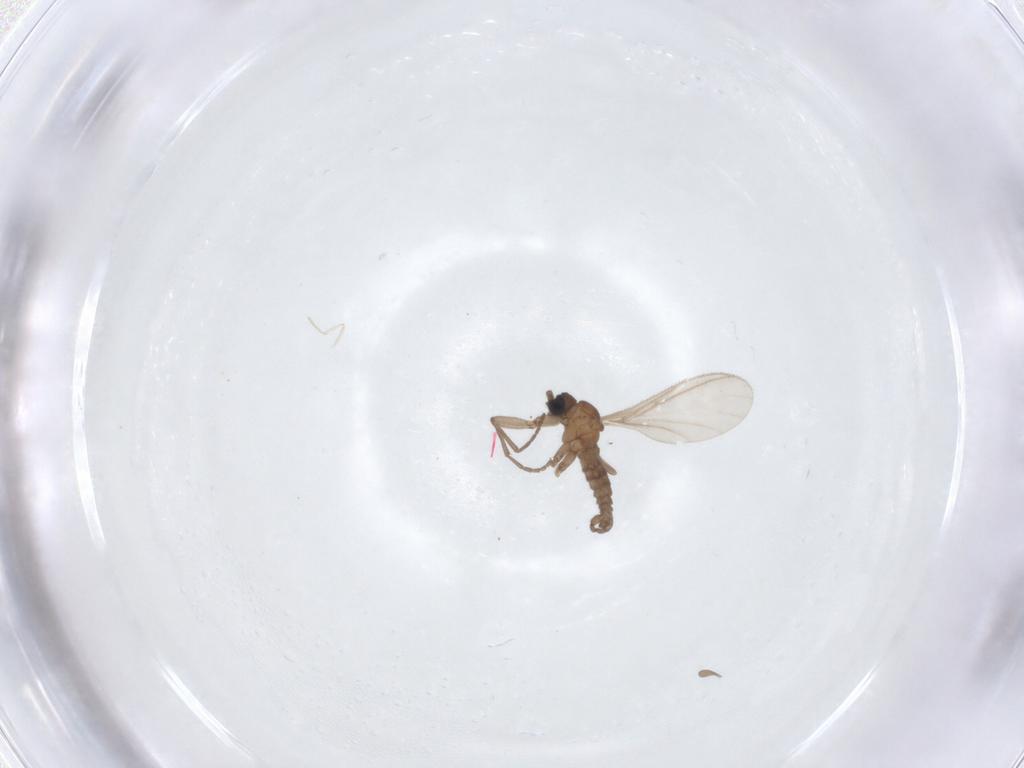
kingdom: Animalia
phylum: Arthropoda
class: Insecta
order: Diptera
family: Sciaridae
